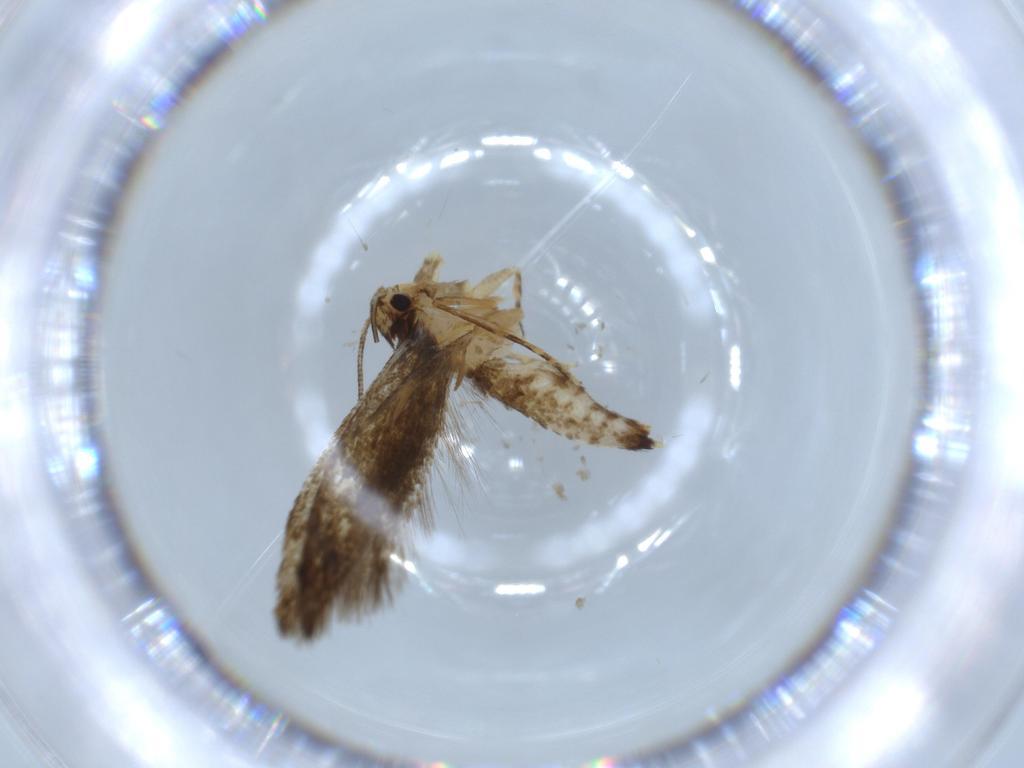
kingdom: Animalia
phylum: Arthropoda
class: Insecta
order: Lepidoptera
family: Tineidae
